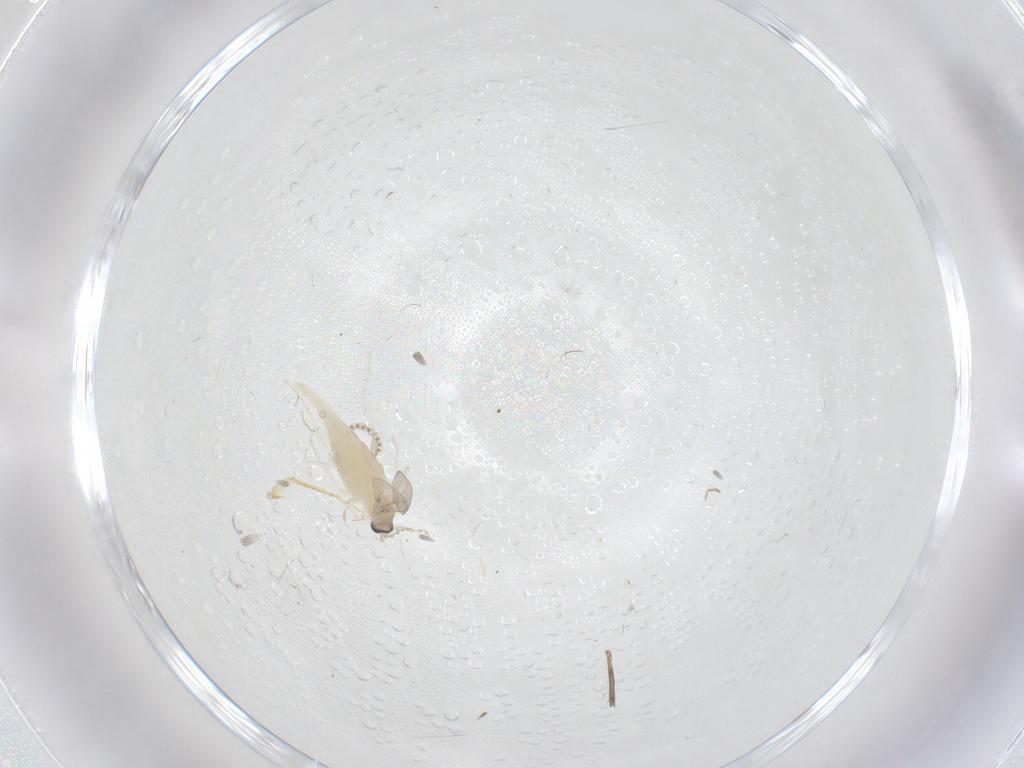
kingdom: Animalia
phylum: Arthropoda
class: Insecta
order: Diptera
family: Cecidomyiidae
